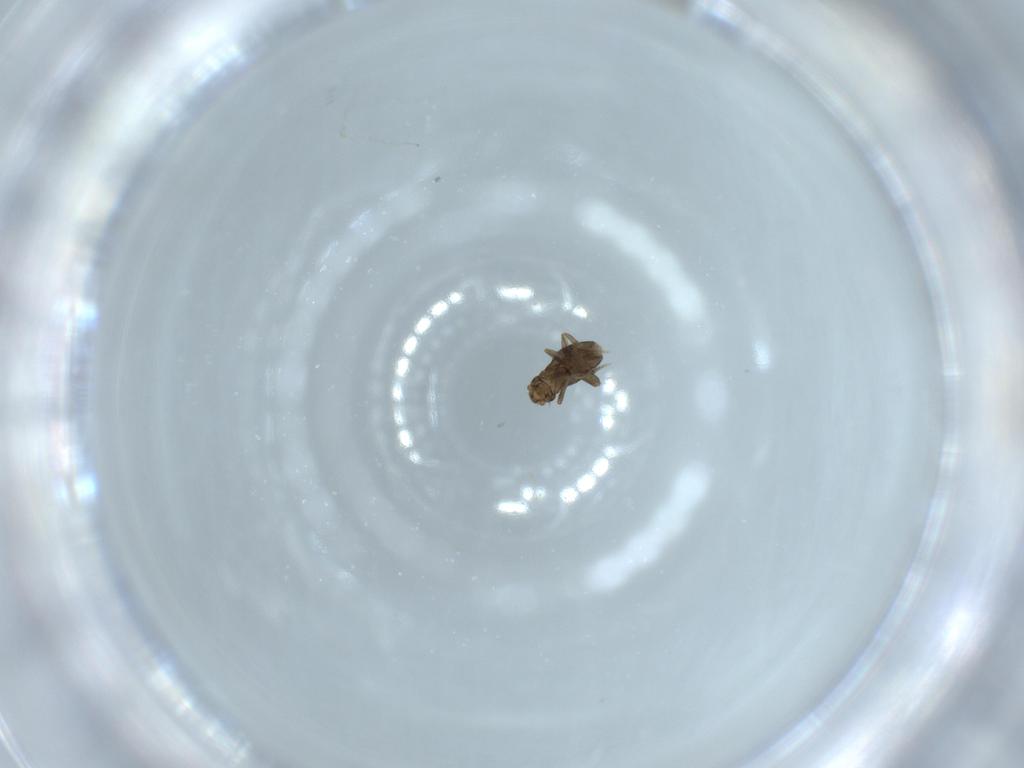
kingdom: Animalia
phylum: Arthropoda
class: Insecta
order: Diptera
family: Phoridae
